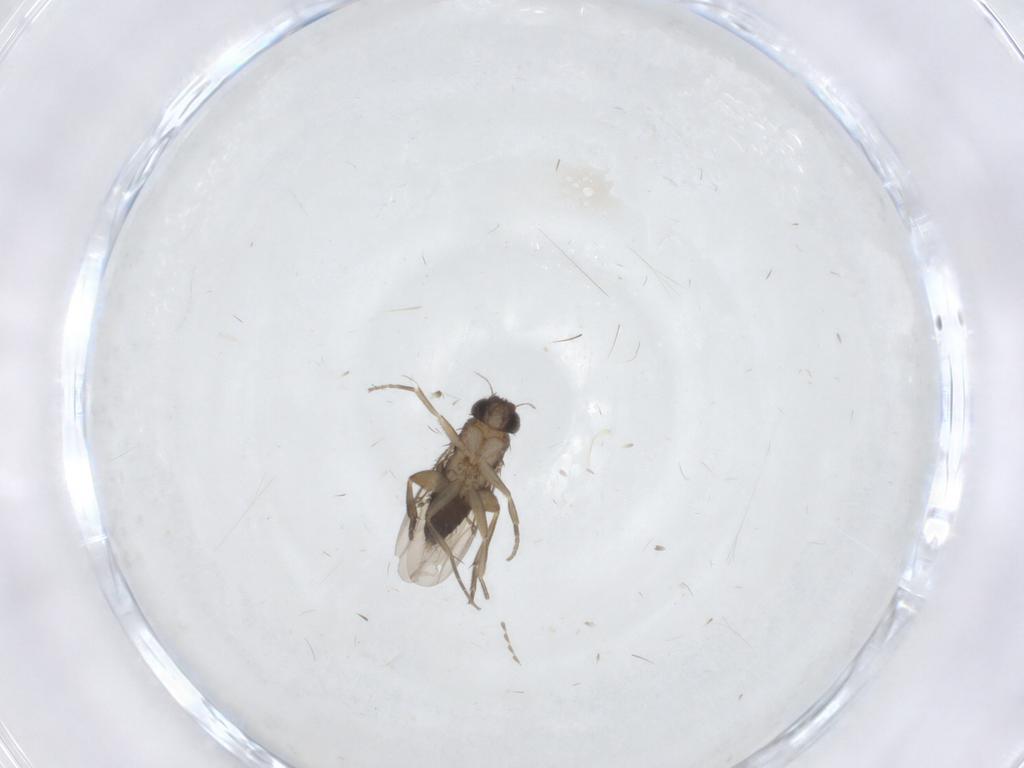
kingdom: Animalia
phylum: Arthropoda
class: Insecta
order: Diptera
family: Phoridae
